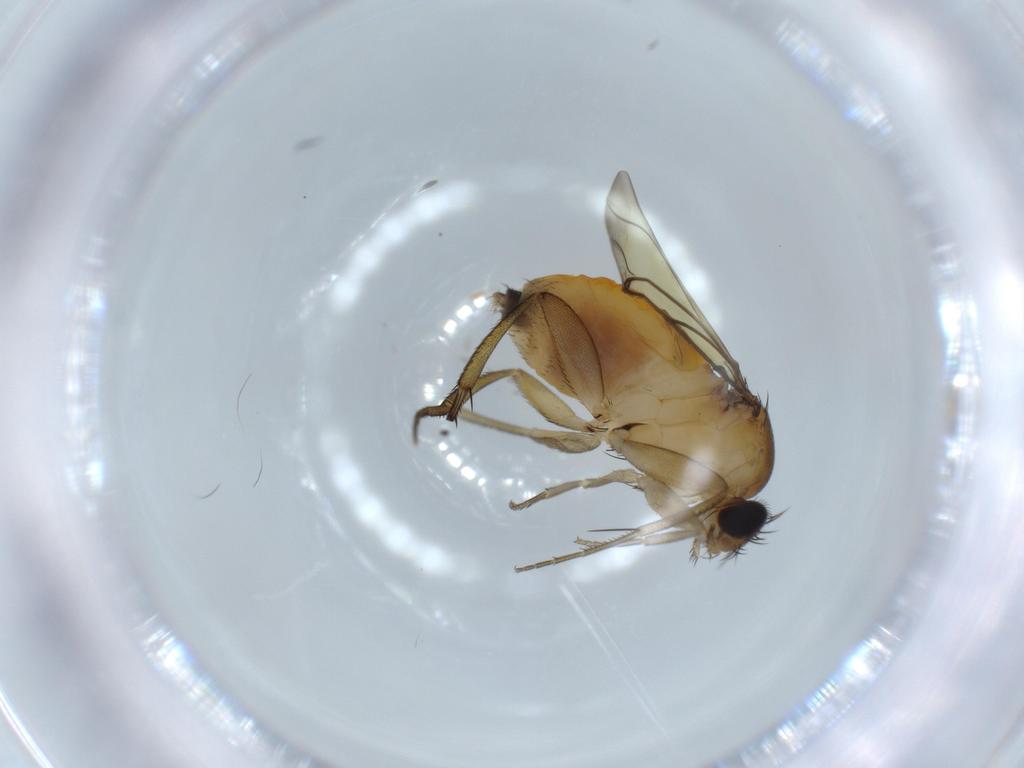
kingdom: Animalia
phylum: Arthropoda
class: Insecta
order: Diptera
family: Phoridae
